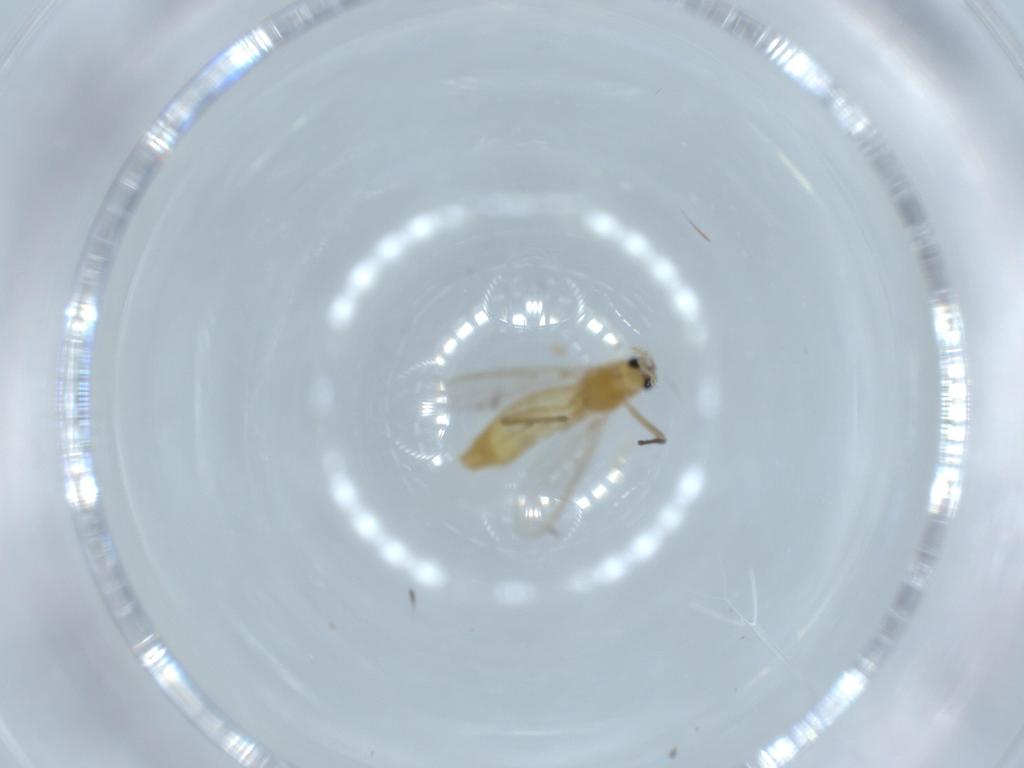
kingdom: Animalia
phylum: Arthropoda
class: Insecta
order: Diptera
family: Chironomidae
